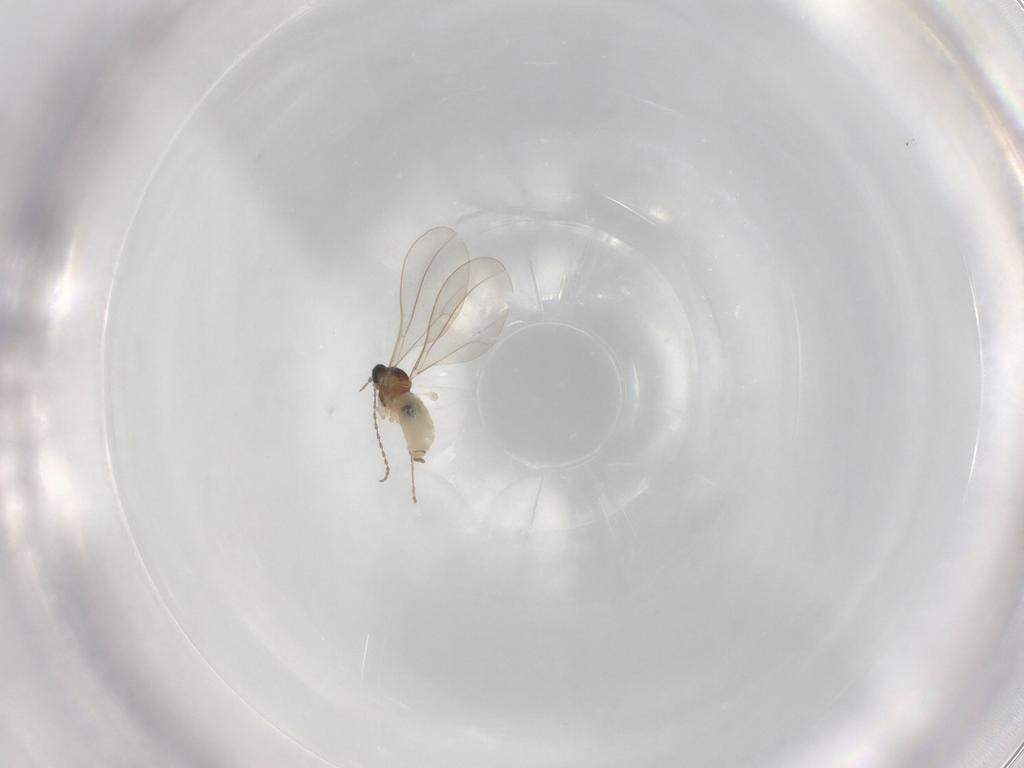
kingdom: Animalia
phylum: Arthropoda
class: Insecta
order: Diptera
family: Cecidomyiidae
